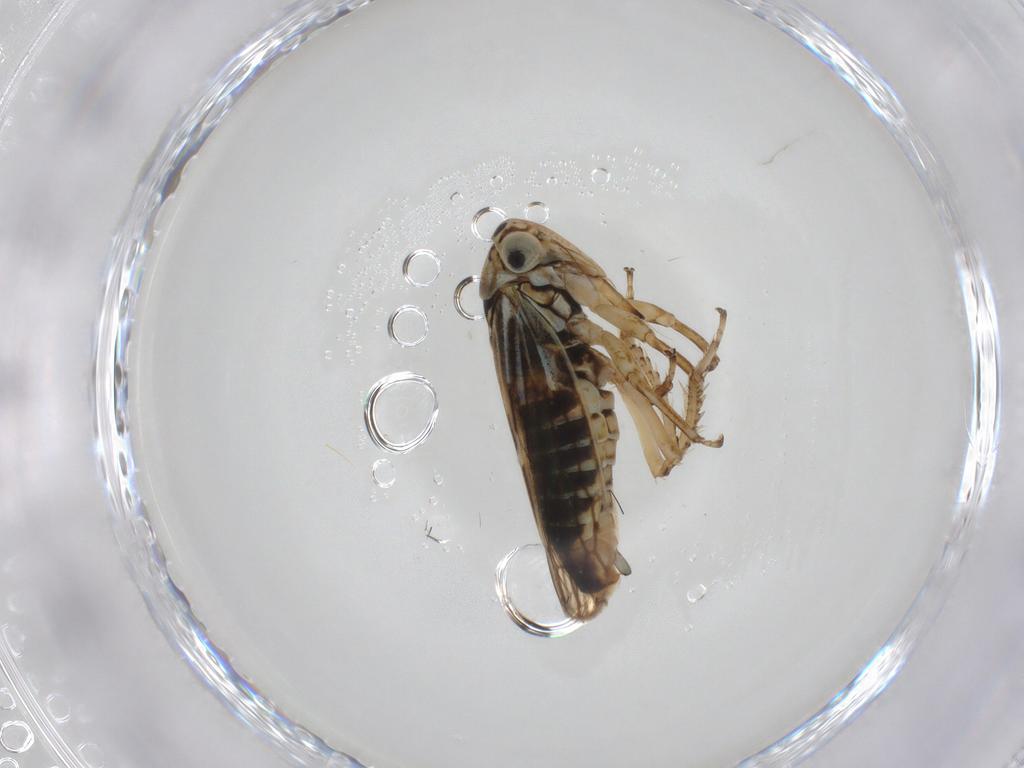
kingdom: Animalia
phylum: Arthropoda
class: Insecta
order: Hemiptera
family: Cicadellidae
